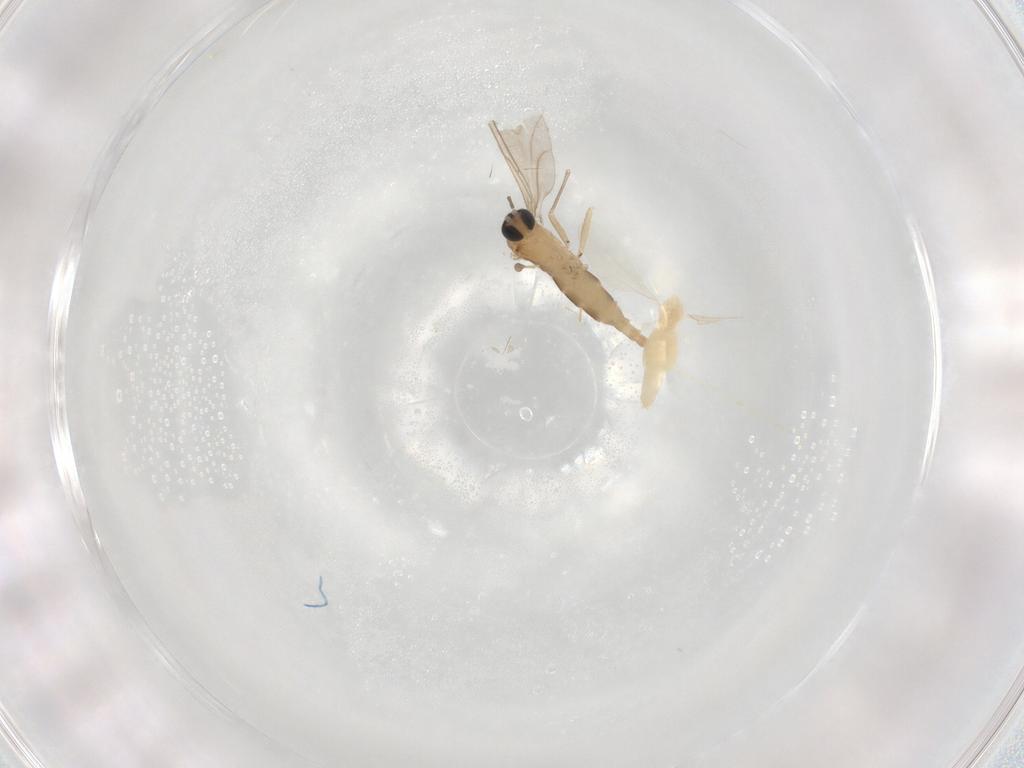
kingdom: Animalia
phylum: Arthropoda
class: Insecta
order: Diptera
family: Sciaridae
